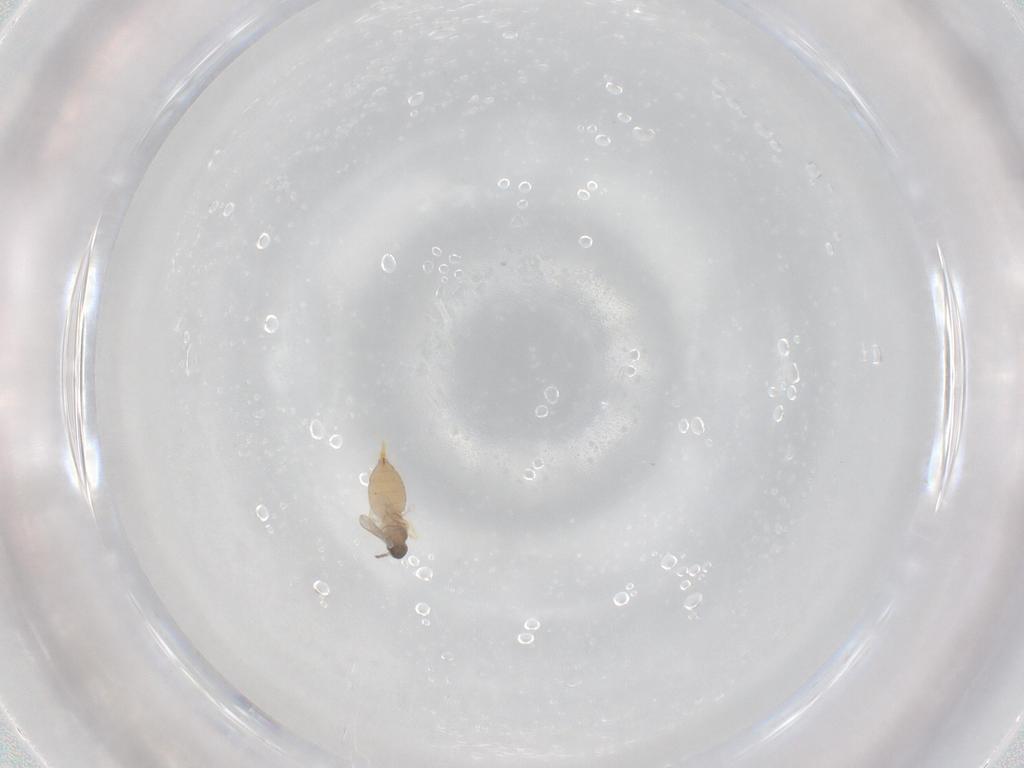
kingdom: Animalia
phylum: Arthropoda
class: Insecta
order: Diptera
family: Cecidomyiidae
